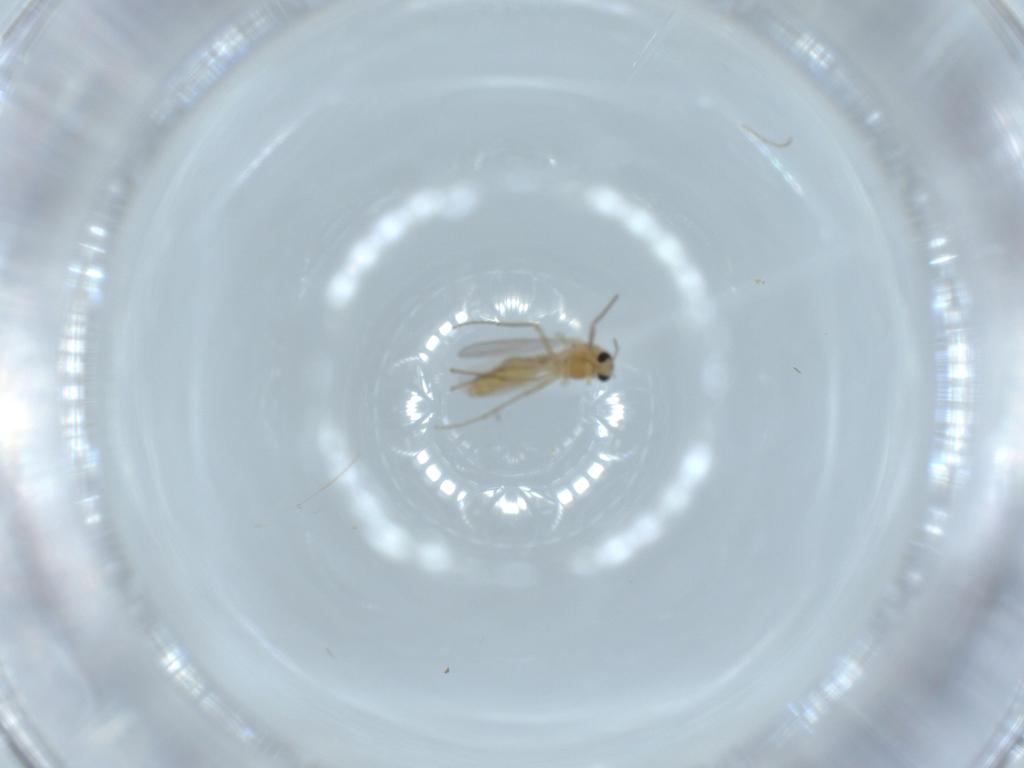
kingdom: Animalia
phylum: Arthropoda
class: Insecta
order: Diptera
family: Chironomidae
